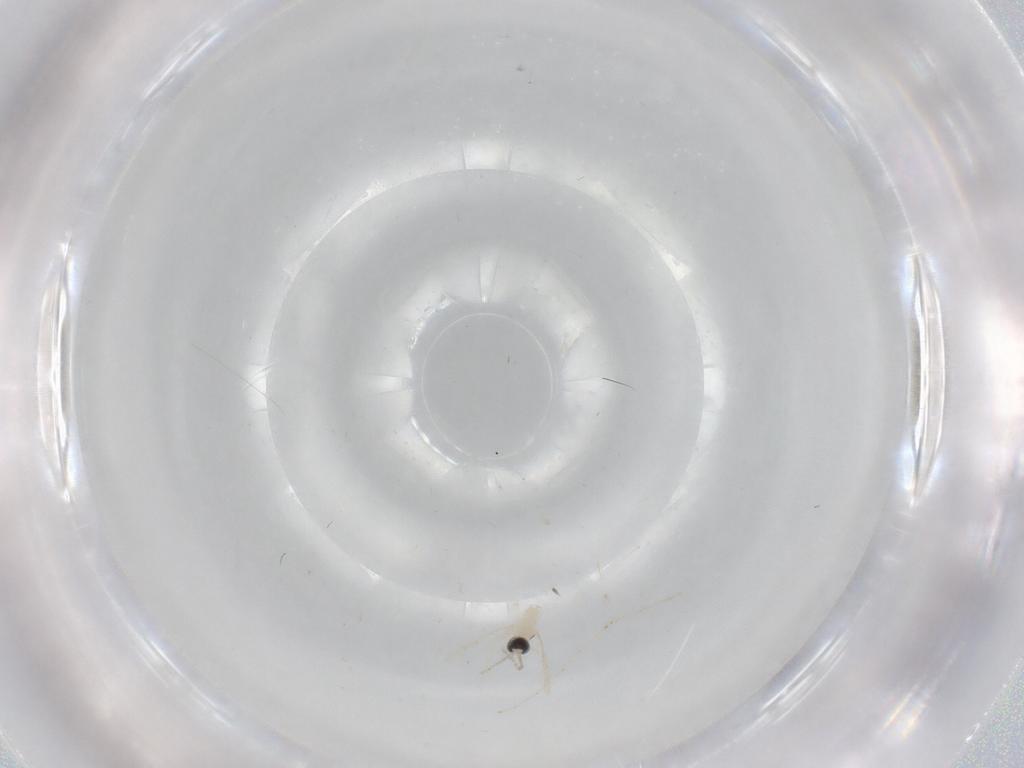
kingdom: Animalia
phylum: Arthropoda
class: Insecta
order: Diptera
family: Cecidomyiidae
